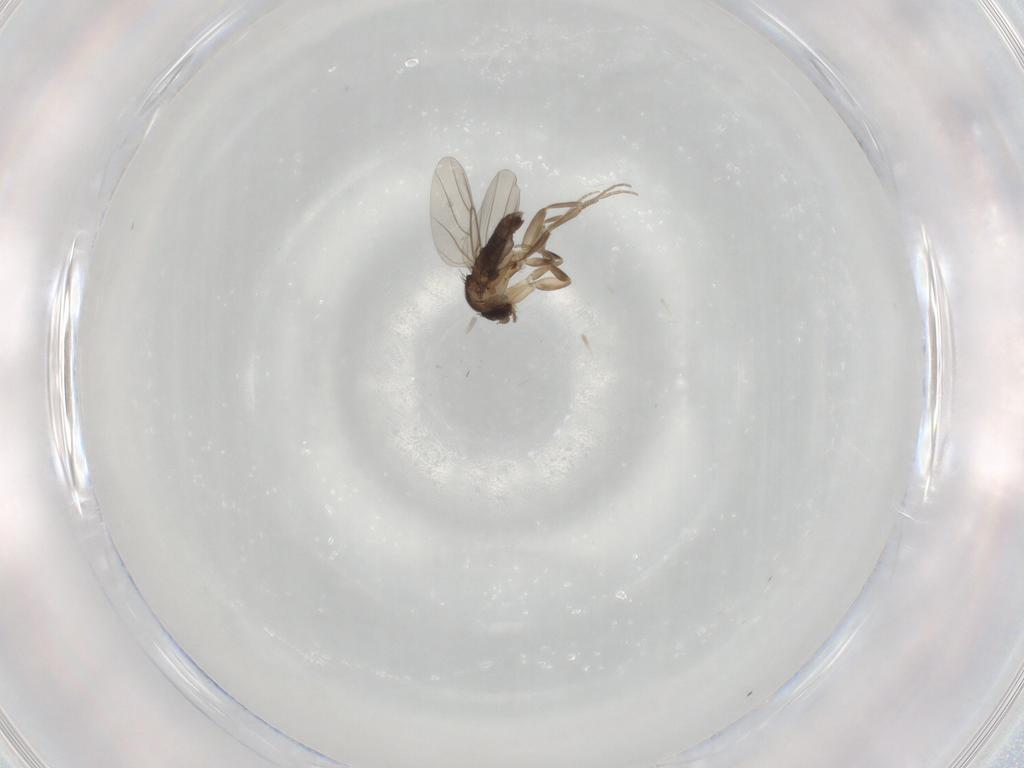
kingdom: Animalia
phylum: Arthropoda
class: Insecta
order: Diptera
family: Phoridae
